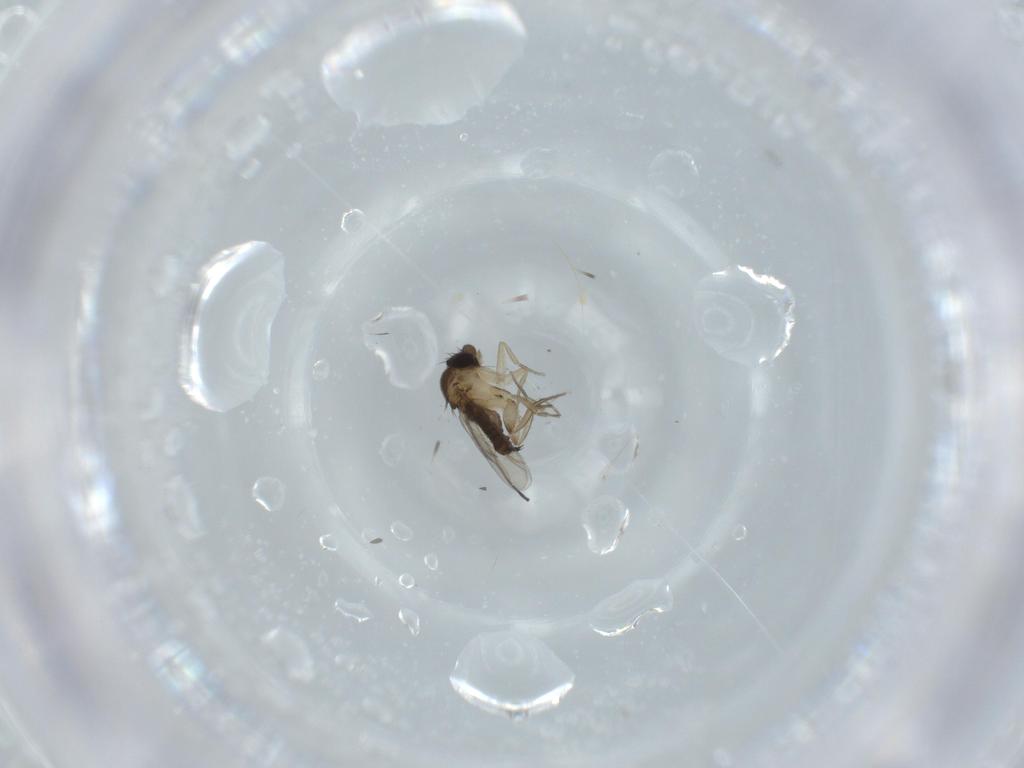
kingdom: Animalia
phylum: Arthropoda
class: Insecta
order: Diptera
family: Phoridae
